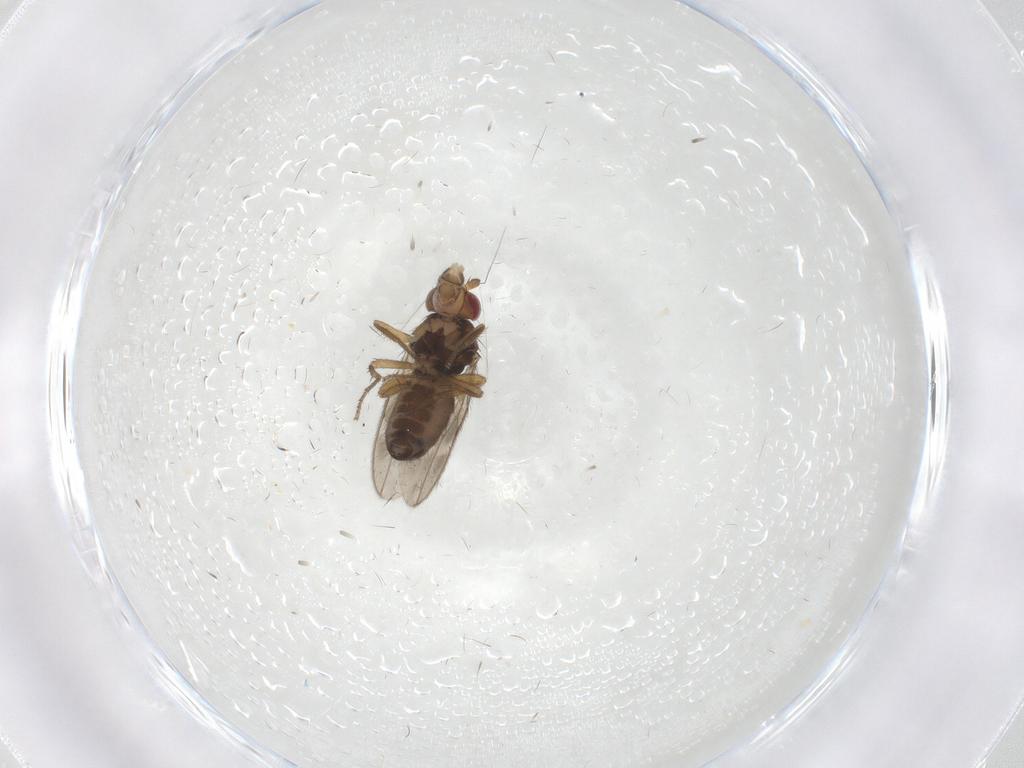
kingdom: Animalia
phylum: Arthropoda
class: Insecta
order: Diptera
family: Sphaeroceridae
